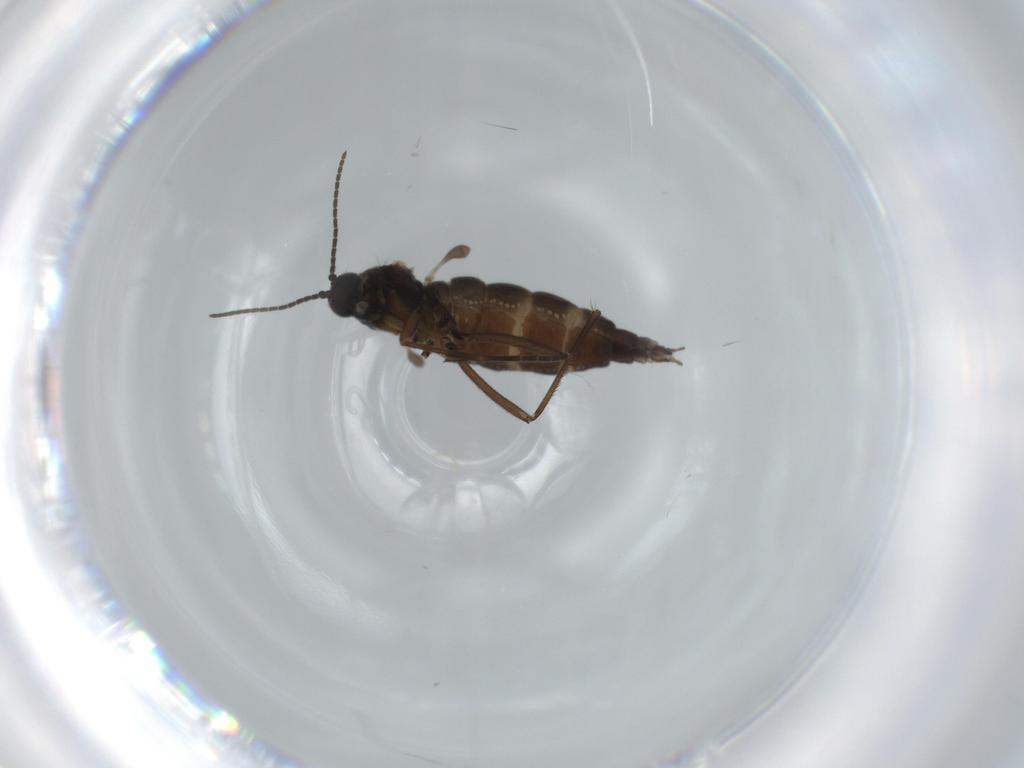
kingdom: Animalia
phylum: Arthropoda
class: Insecta
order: Diptera
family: Sciaridae
